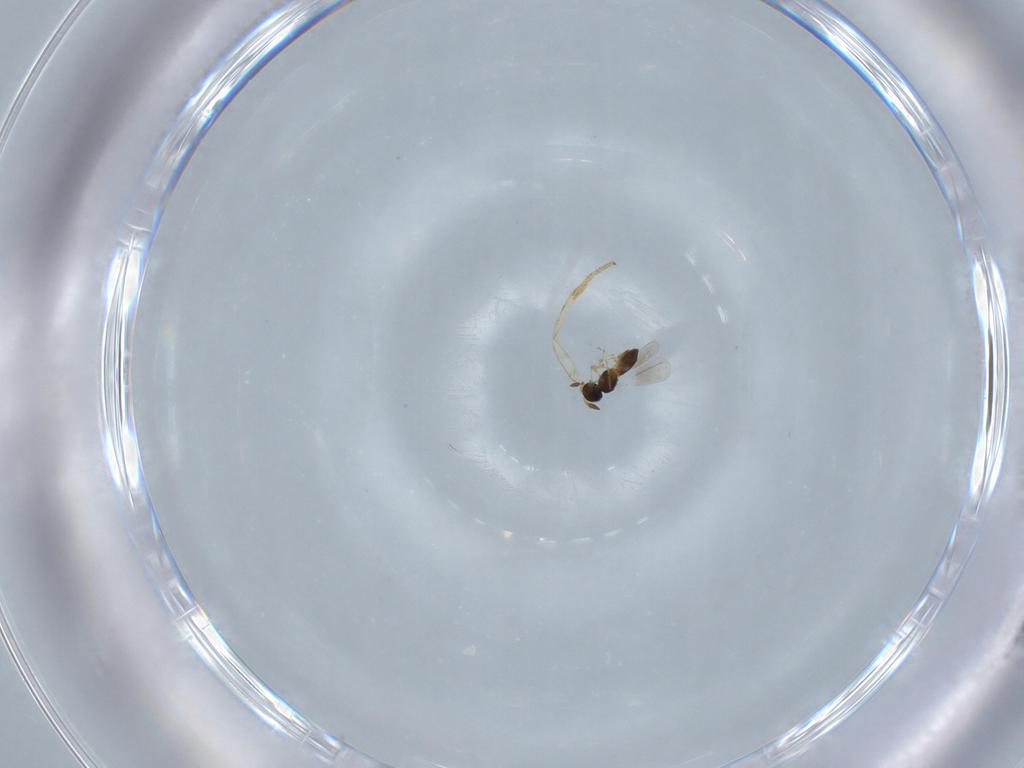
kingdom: Animalia
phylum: Arthropoda
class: Insecta
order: Hymenoptera
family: Platygastridae
